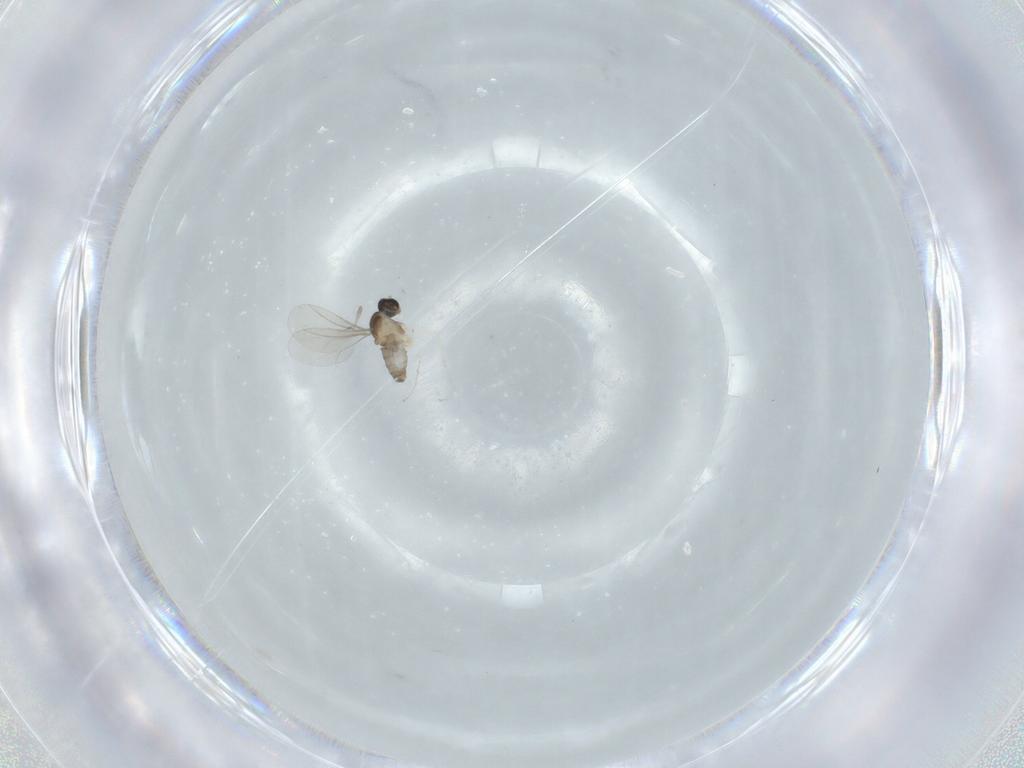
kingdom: Animalia
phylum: Arthropoda
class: Insecta
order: Diptera
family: Cecidomyiidae
